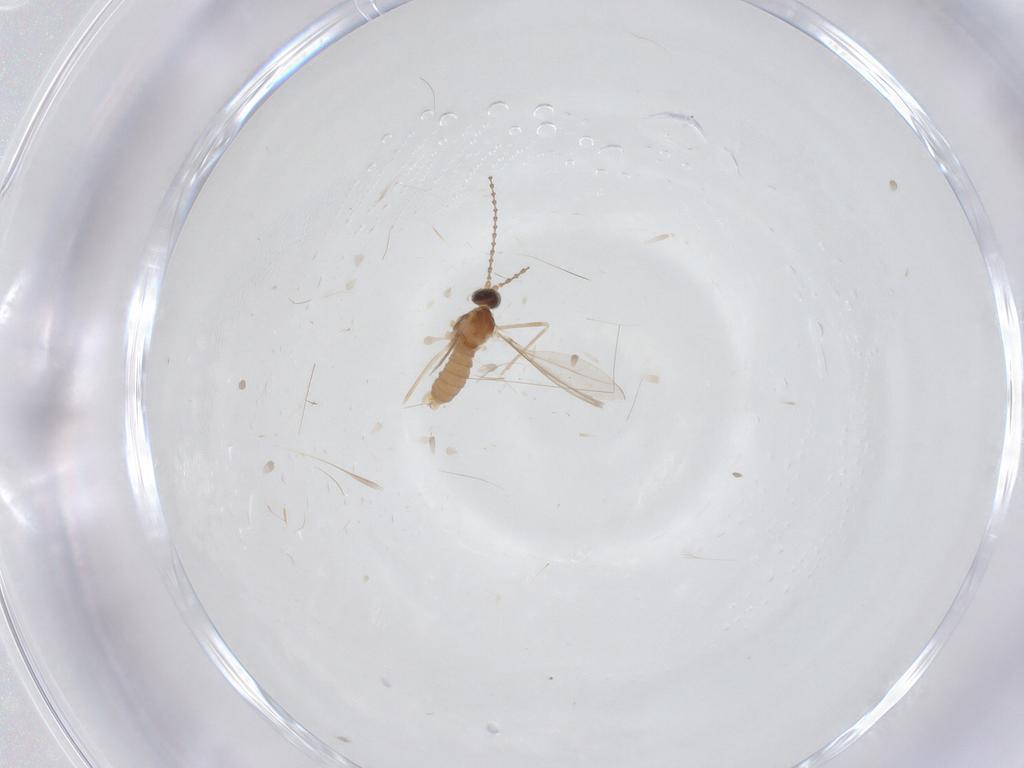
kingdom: Animalia
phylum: Arthropoda
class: Insecta
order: Diptera
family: Cecidomyiidae
